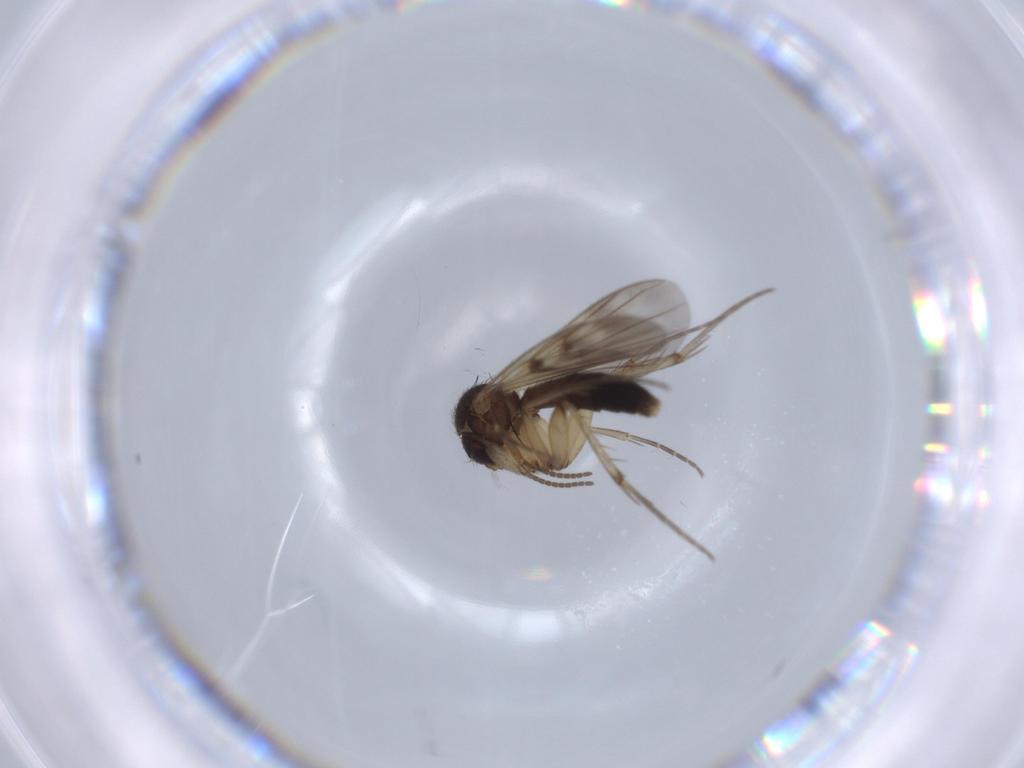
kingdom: Animalia
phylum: Arthropoda
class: Insecta
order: Diptera
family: Mycetophilidae
